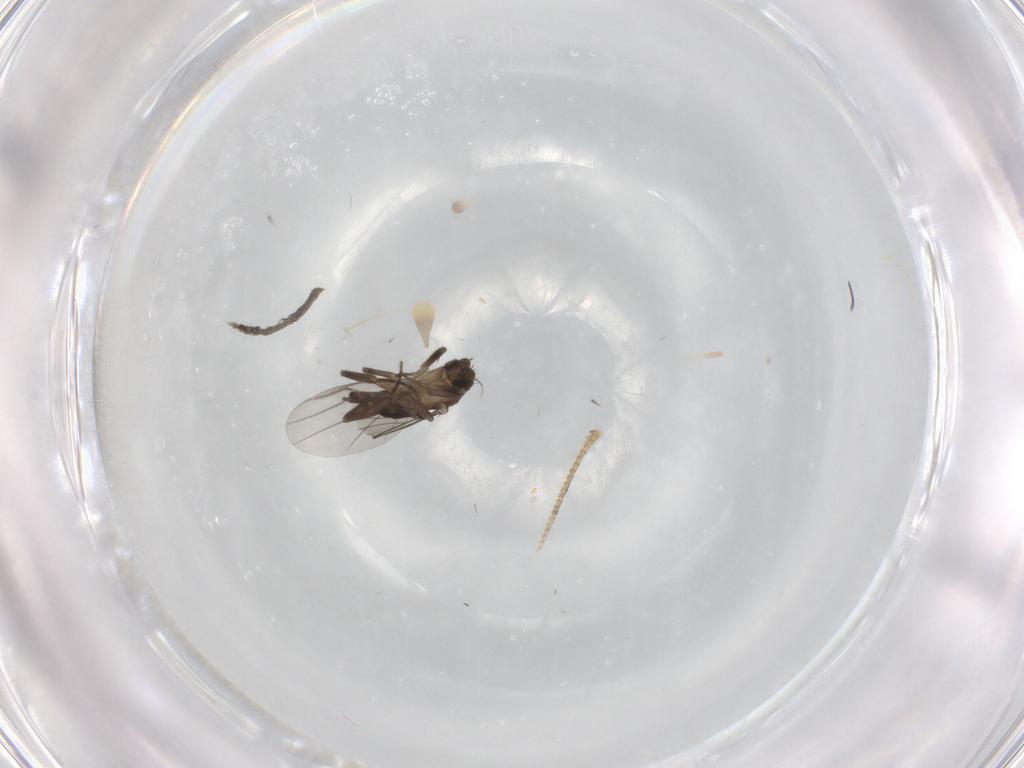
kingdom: Animalia
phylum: Arthropoda
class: Insecta
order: Diptera
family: Chironomidae
